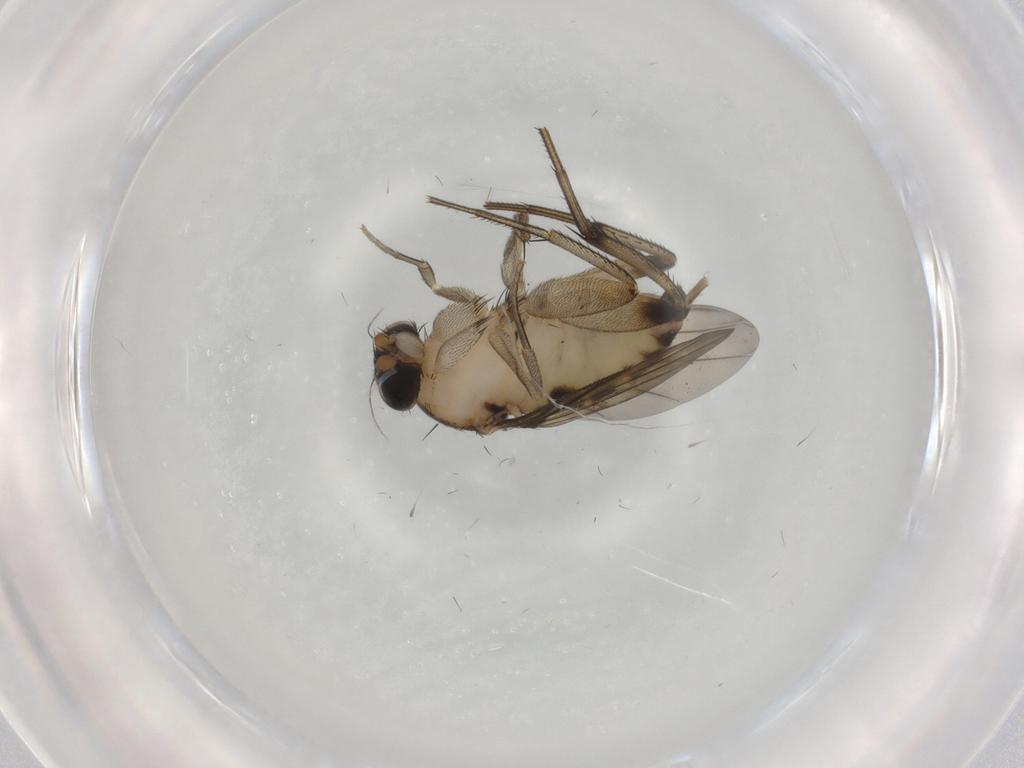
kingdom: Animalia
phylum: Arthropoda
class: Insecta
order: Diptera
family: Phoridae
